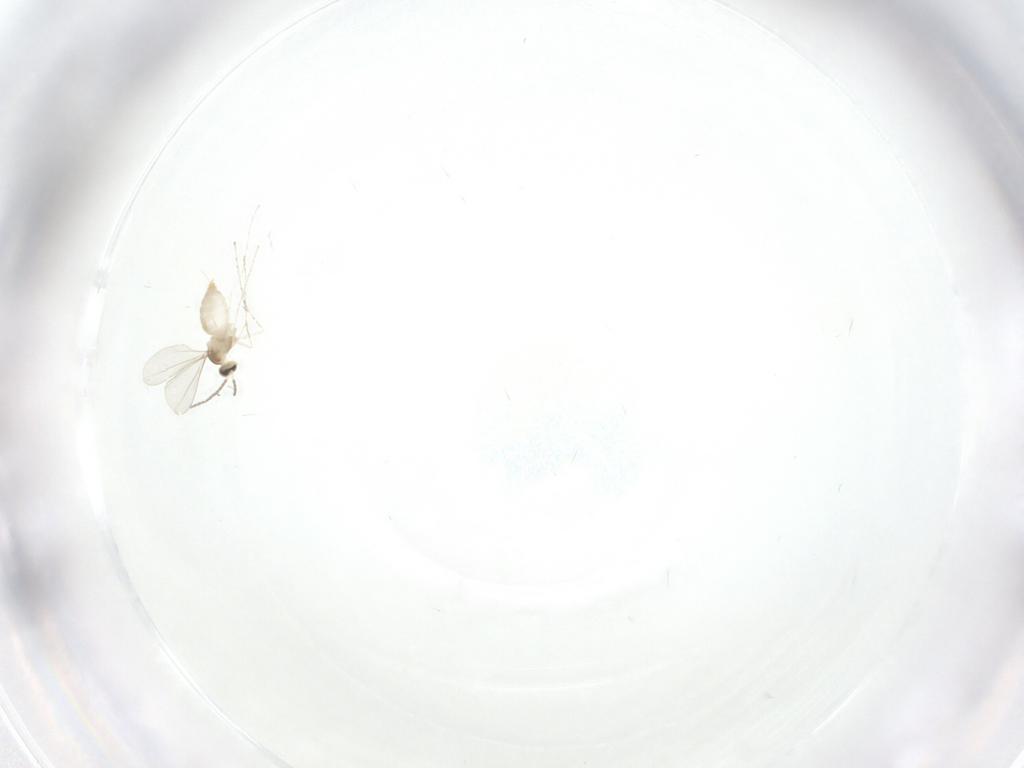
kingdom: Animalia
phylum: Arthropoda
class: Insecta
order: Diptera
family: Cecidomyiidae
